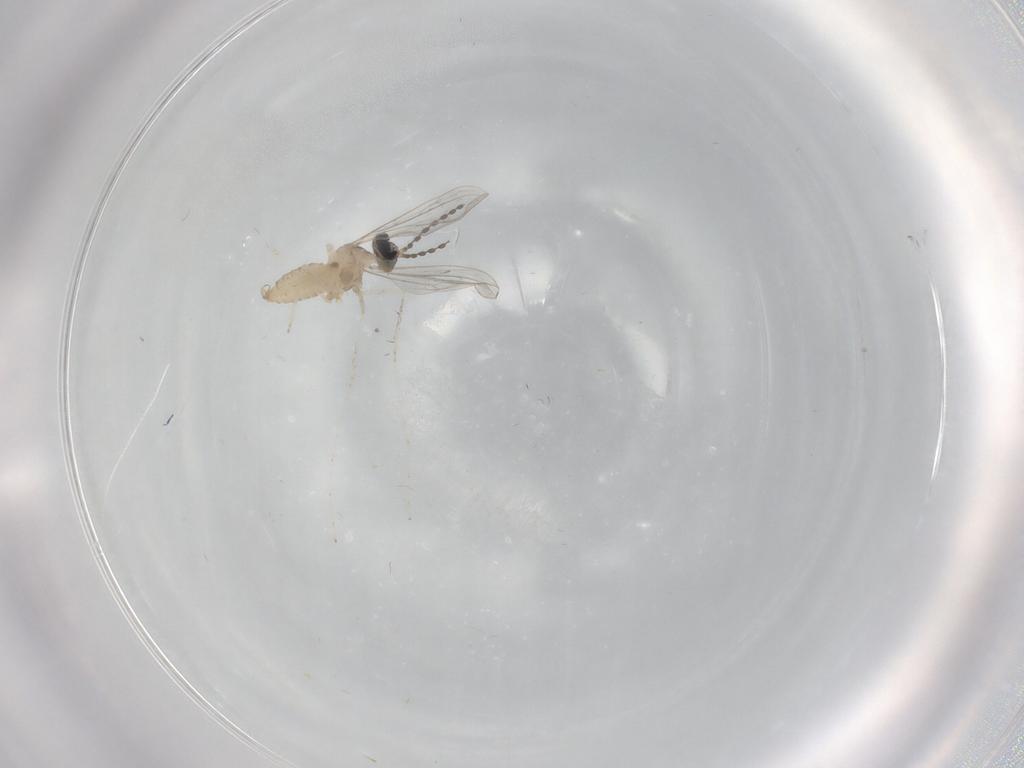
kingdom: Animalia
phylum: Arthropoda
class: Insecta
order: Diptera
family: Cecidomyiidae
